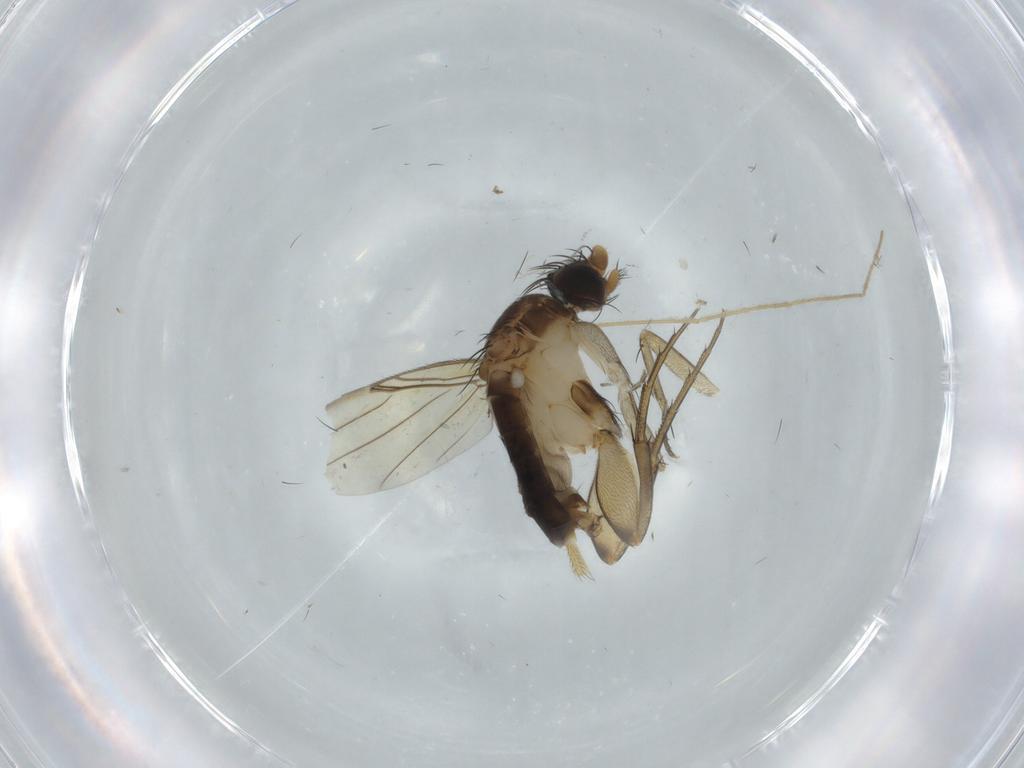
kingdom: Animalia
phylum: Arthropoda
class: Insecta
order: Diptera
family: Phoridae
